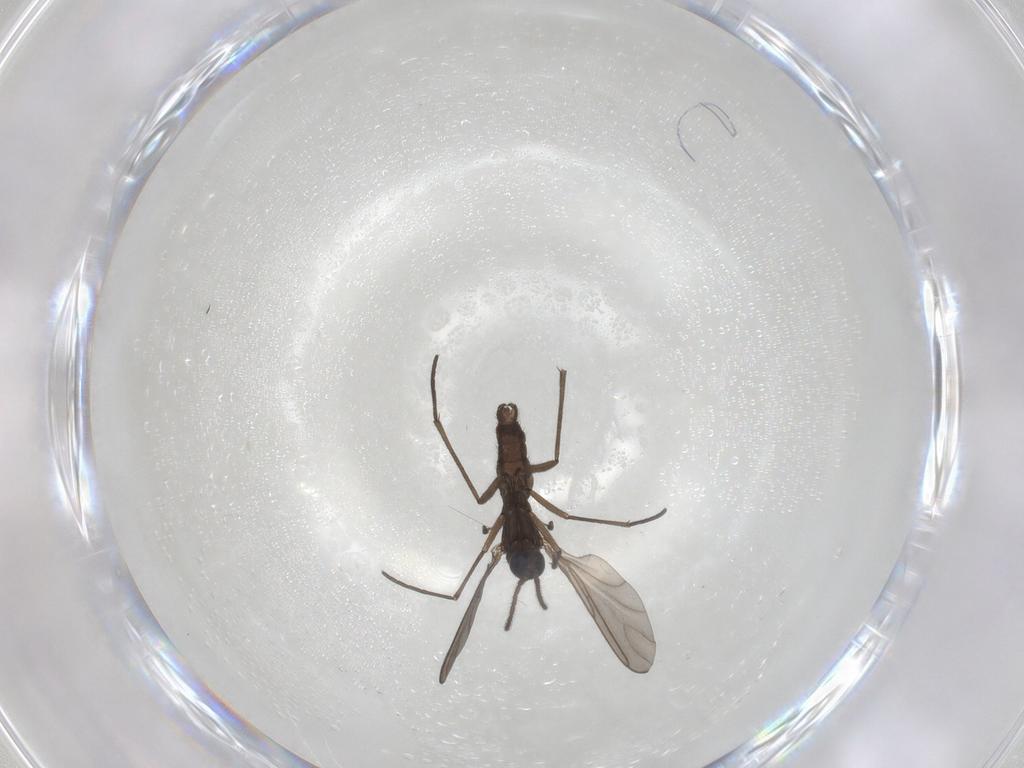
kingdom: Animalia
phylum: Arthropoda
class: Insecta
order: Diptera
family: Sciaridae
